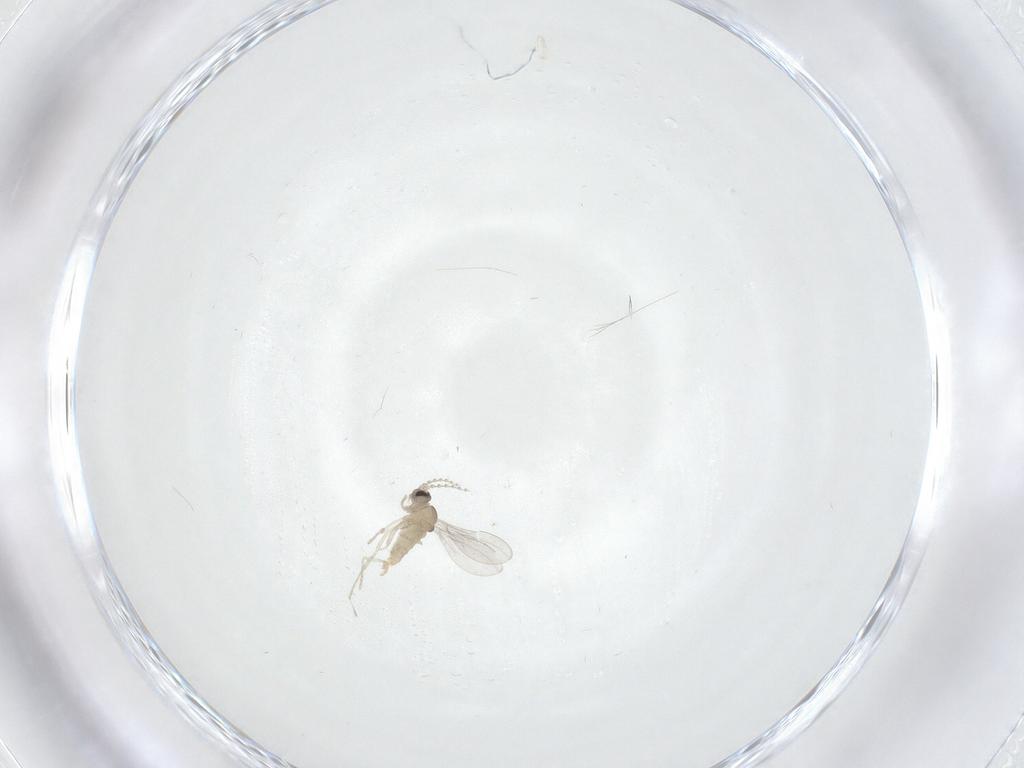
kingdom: Animalia
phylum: Arthropoda
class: Insecta
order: Diptera
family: Cecidomyiidae
